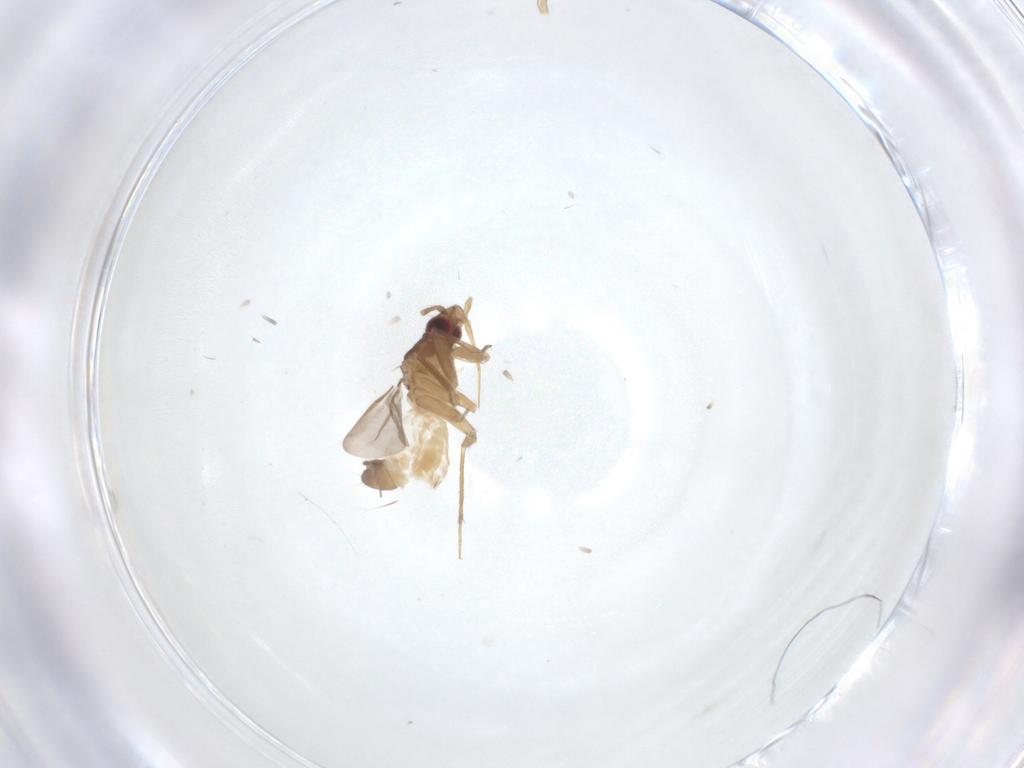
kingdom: Animalia
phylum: Arthropoda
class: Insecta
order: Hemiptera
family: Ceratocombidae
